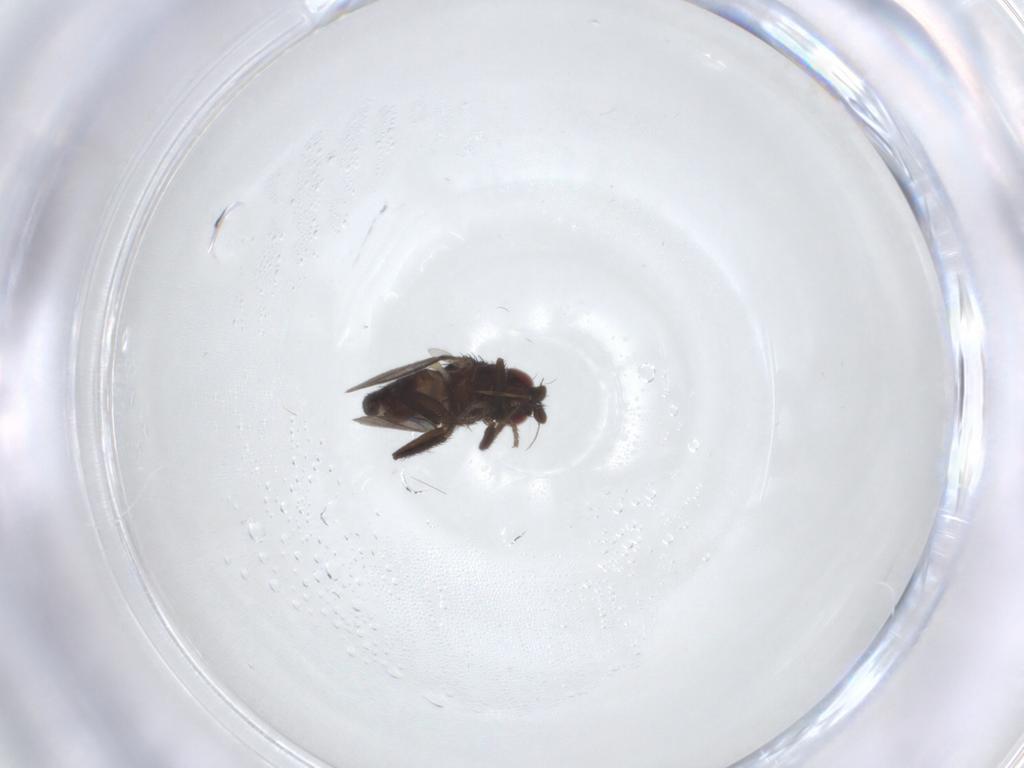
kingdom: Animalia
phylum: Arthropoda
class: Insecta
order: Diptera
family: Milichiidae
